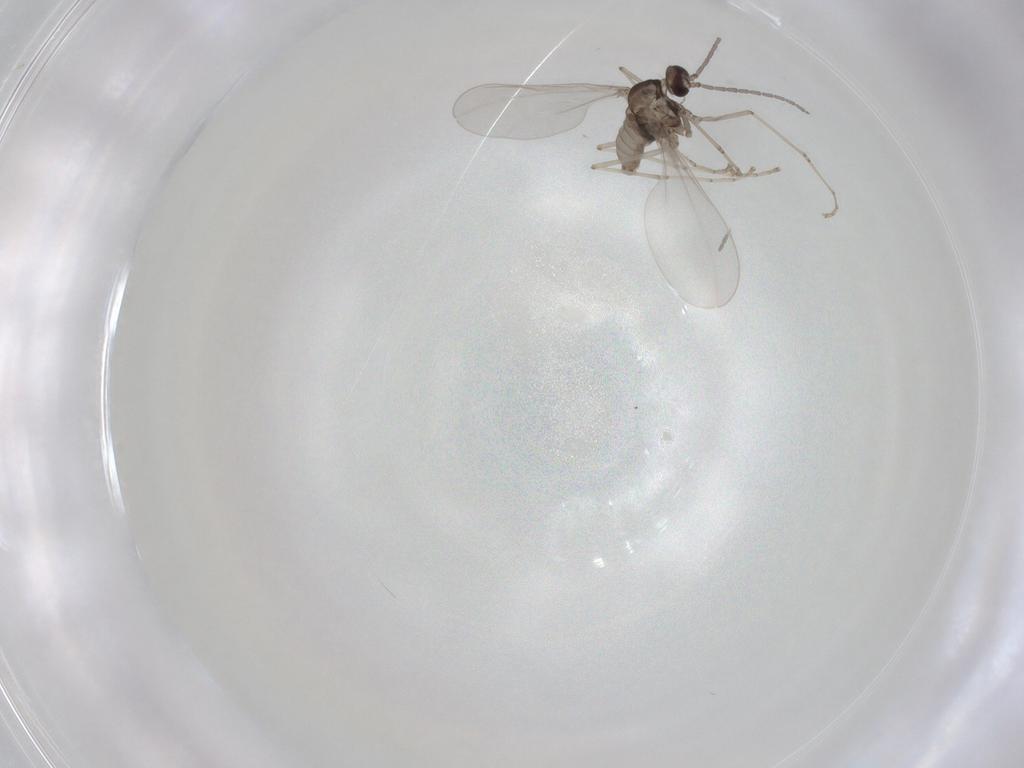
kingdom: Animalia
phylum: Arthropoda
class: Insecta
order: Diptera
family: Cecidomyiidae
